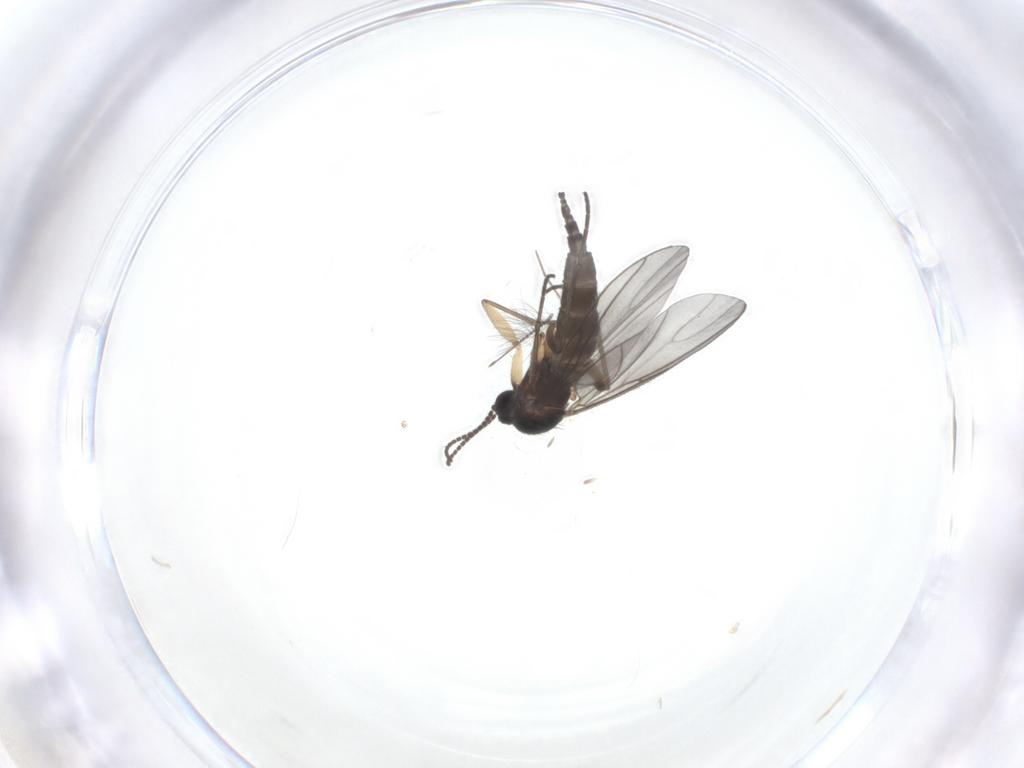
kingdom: Animalia
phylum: Arthropoda
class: Insecta
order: Diptera
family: Sciaridae
